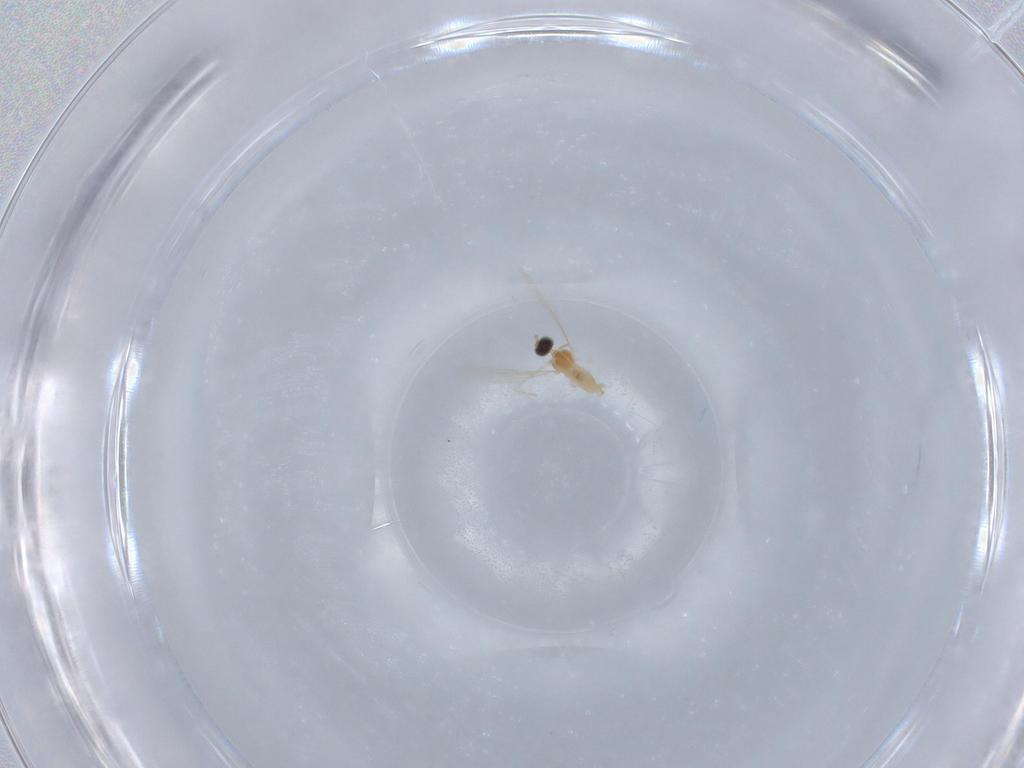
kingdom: Animalia
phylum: Arthropoda
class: Insecta
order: Diptera
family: Cecidomyiidae
